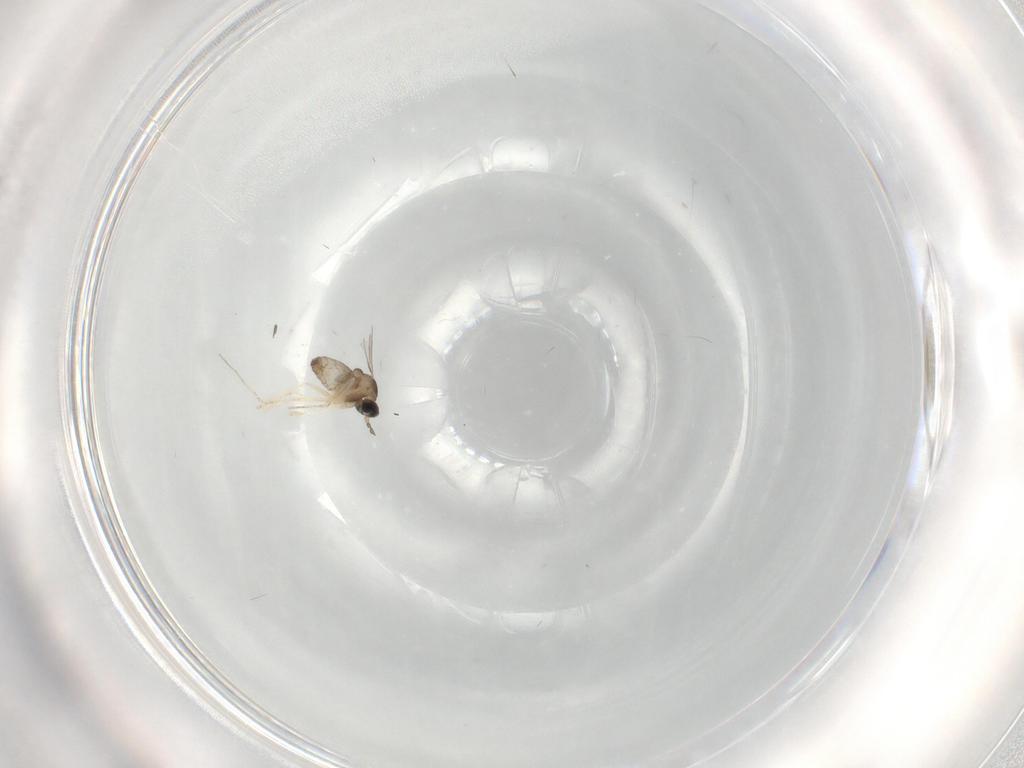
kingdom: Animalia
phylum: Arthropoda
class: Insecta
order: Diptera
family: Cecidomyiidae
